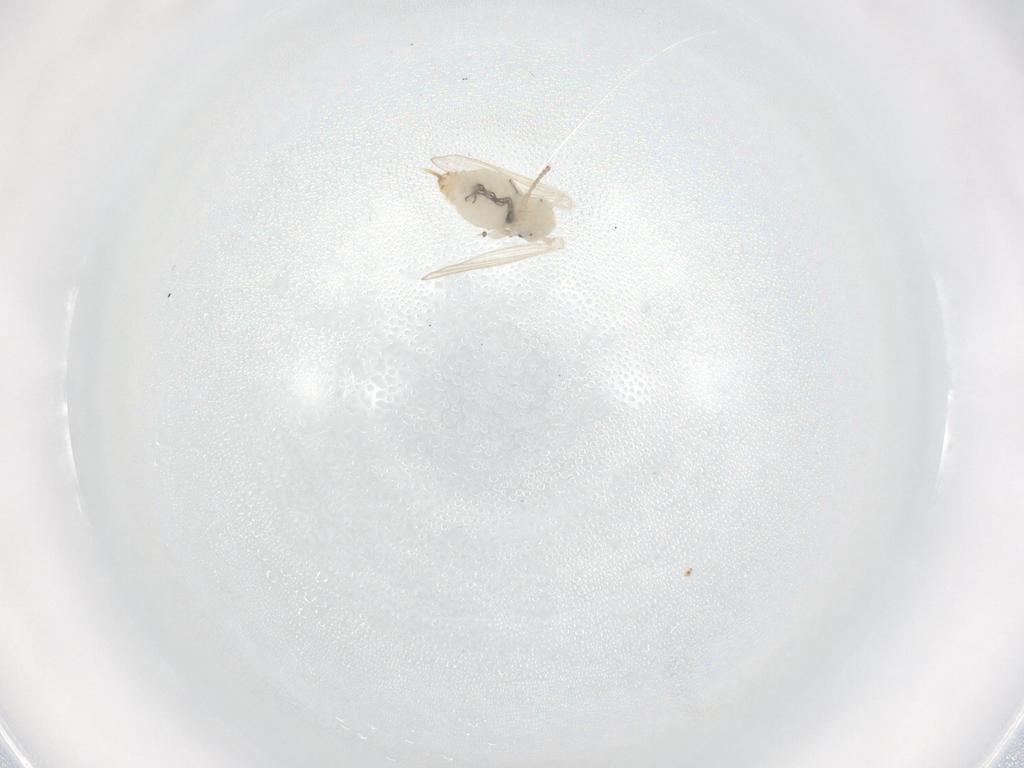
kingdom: Animalia
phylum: Arthropoda
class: Insecta
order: Diptera
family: Psychodidae
